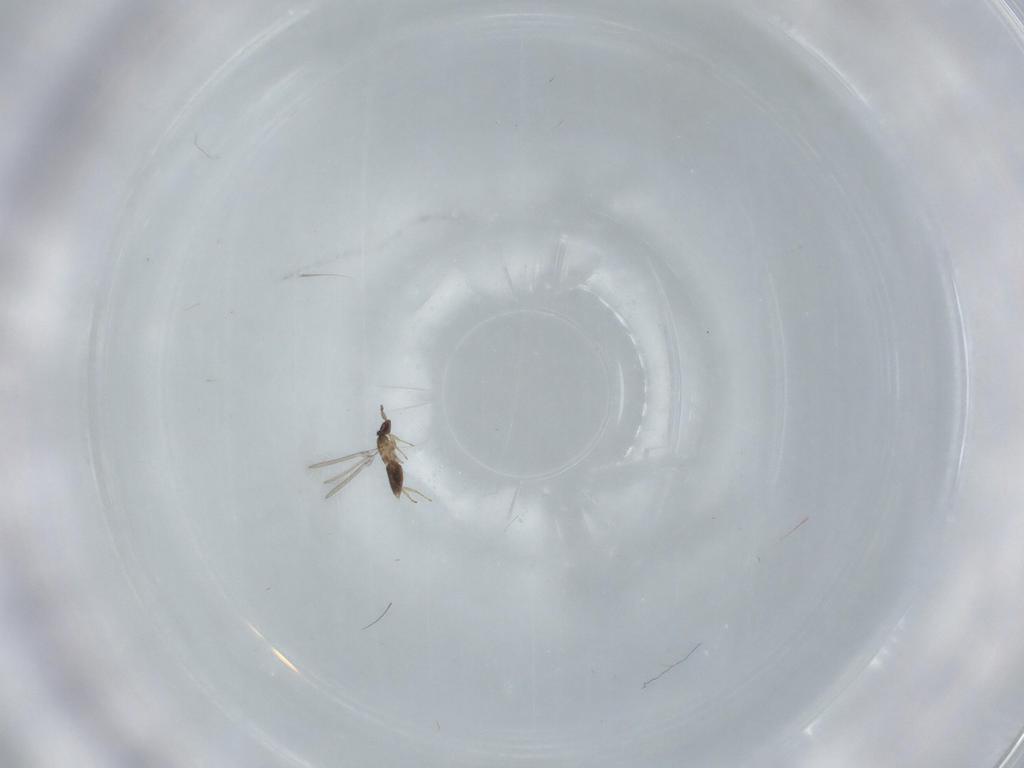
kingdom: Animalia
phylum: Arthropoda
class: Insecta
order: Hymenoptera
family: Mymaridae
